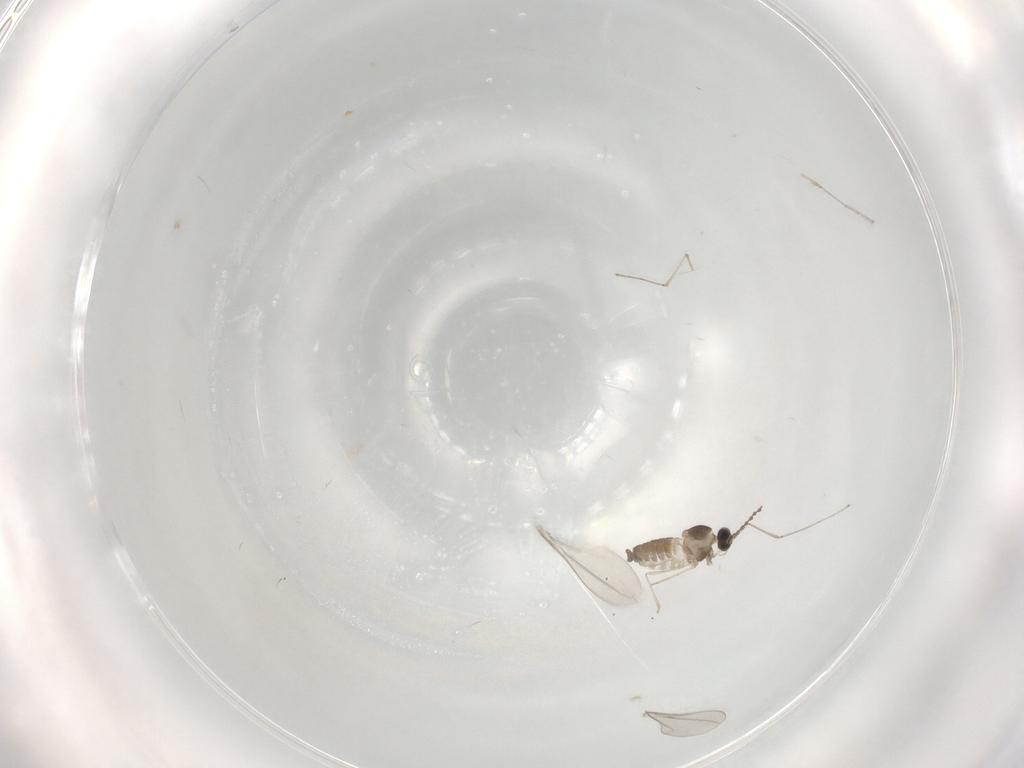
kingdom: Animalia
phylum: Arthropoda
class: Insecta
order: Diptera
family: Cecidomyiidae
